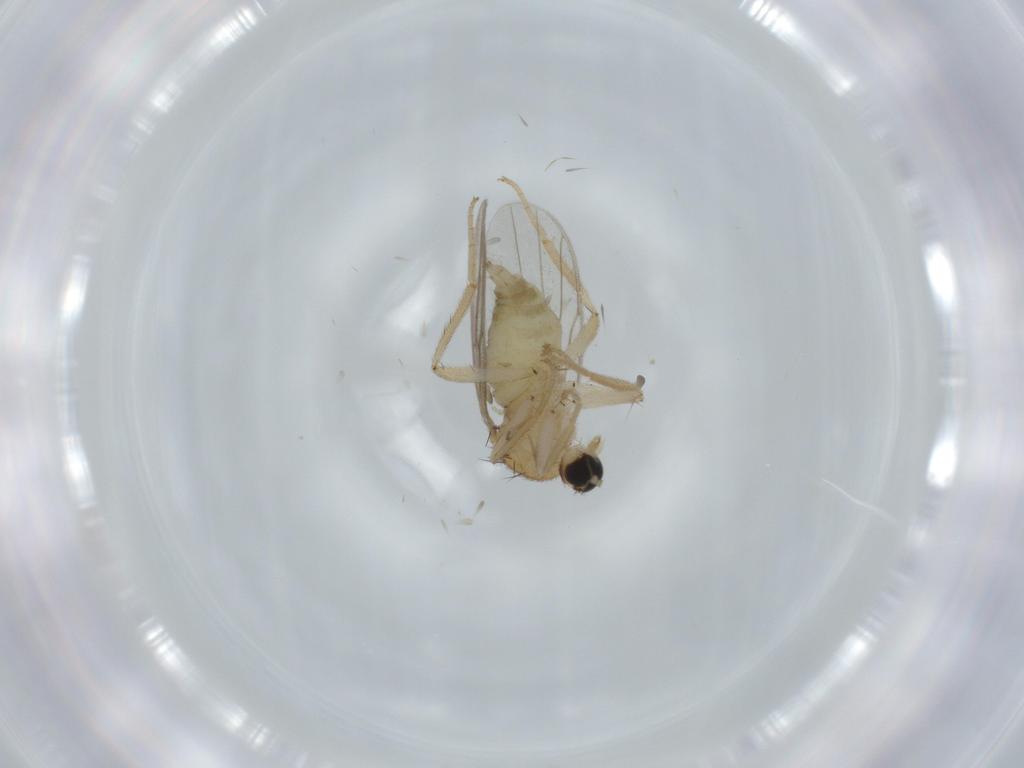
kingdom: Animalia
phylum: Arthropoda
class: Insecta
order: Diptera
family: Hybotidae
